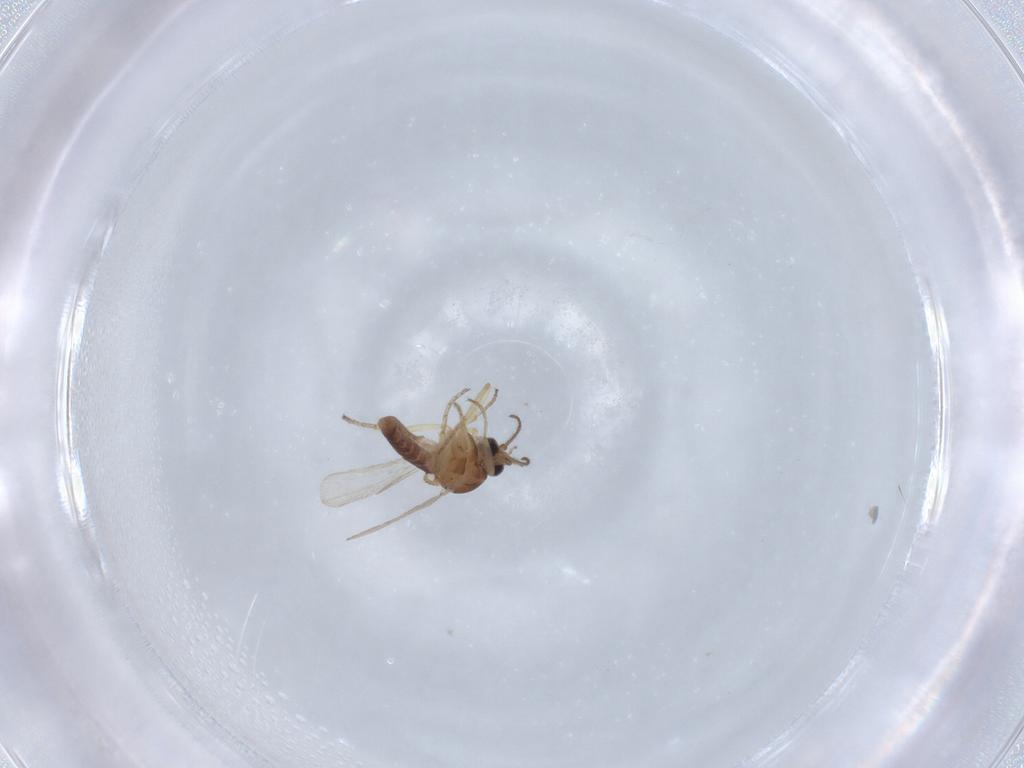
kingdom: Animalia
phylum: Arthropoda
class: Insecta
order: Diptera
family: Ceratopogonidae
